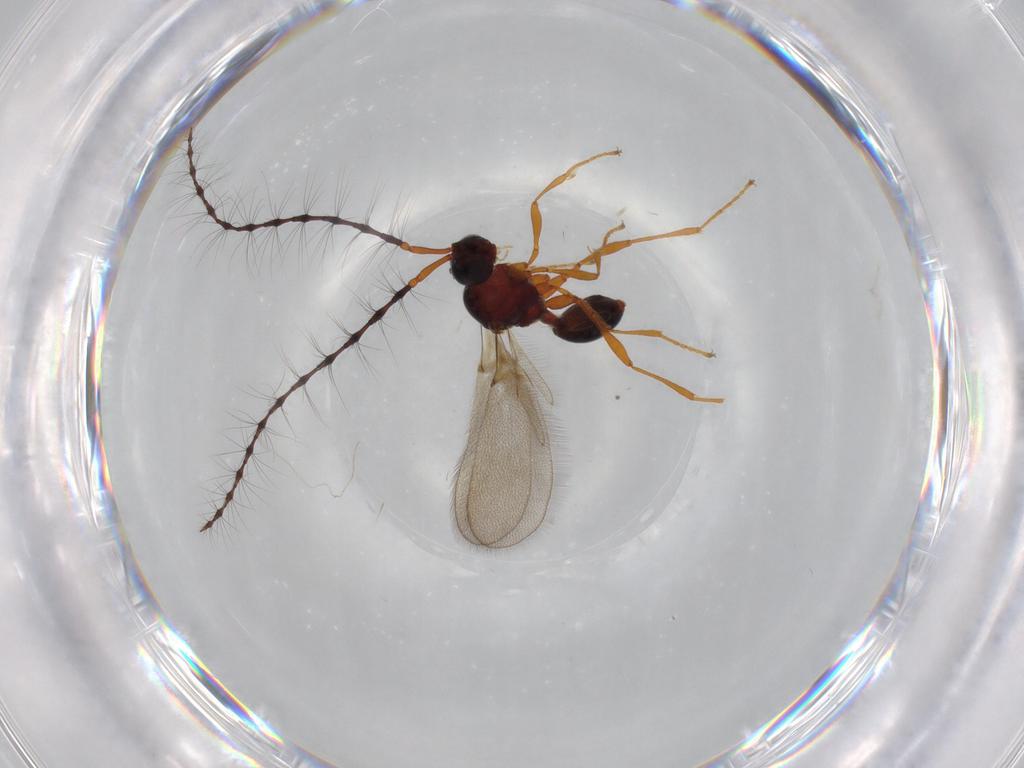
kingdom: Animalia
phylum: Arthropoda
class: Insecta
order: Hymenoptera
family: Diapriidae
